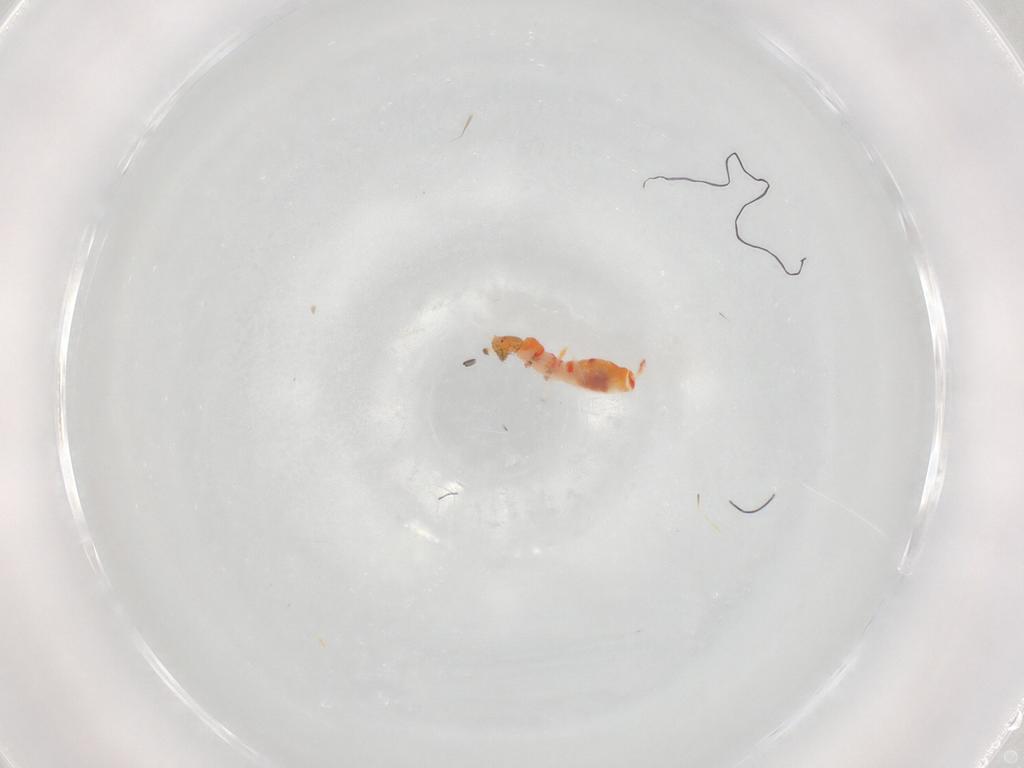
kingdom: Animalia
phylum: Arthropoda
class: Insecta
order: Thysanoptera
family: Aeolothripidae
